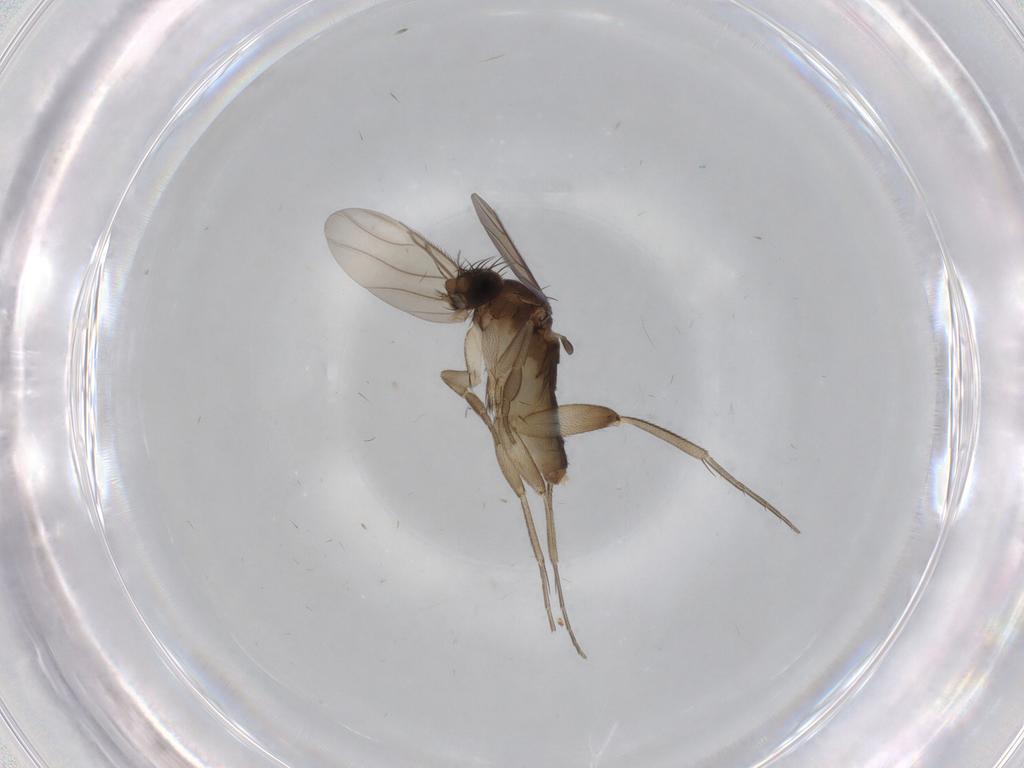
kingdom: Animalia
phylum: Arthropoda
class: Insecta
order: Diptera
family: Phoridae
